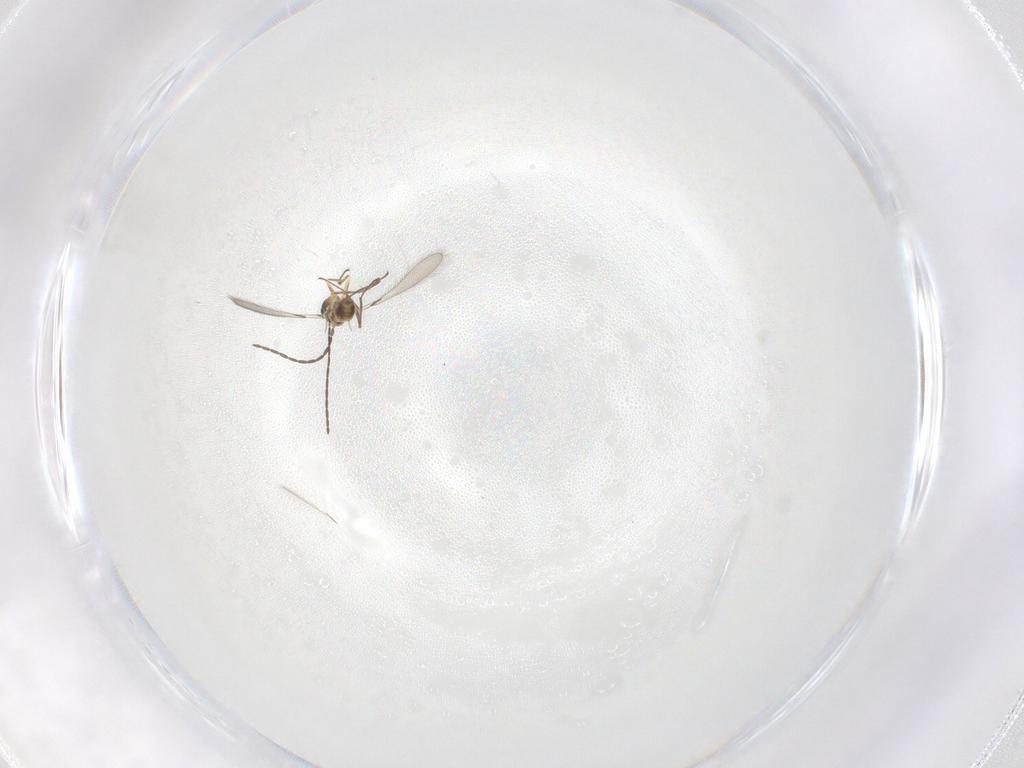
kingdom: Animalia
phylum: Arthropoda
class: Insecta
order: Hymenoptera
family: Mymaridae
